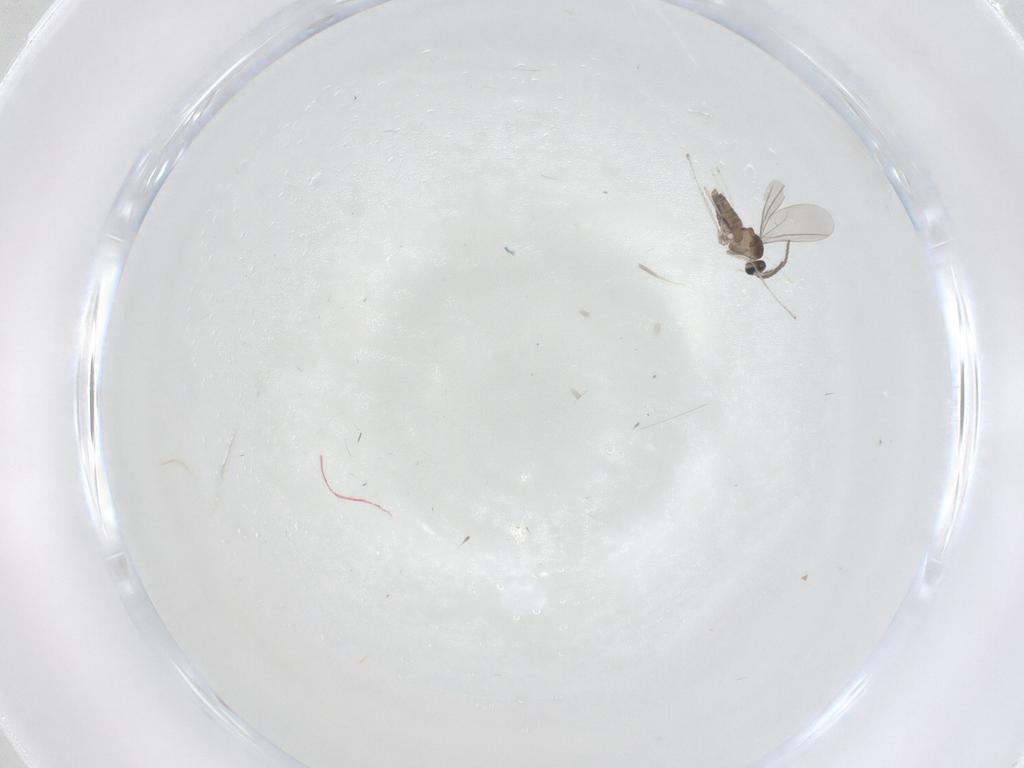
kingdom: Animalia
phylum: Arthropoda
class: Insecta
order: Diptera
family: Cecidomyiidae
